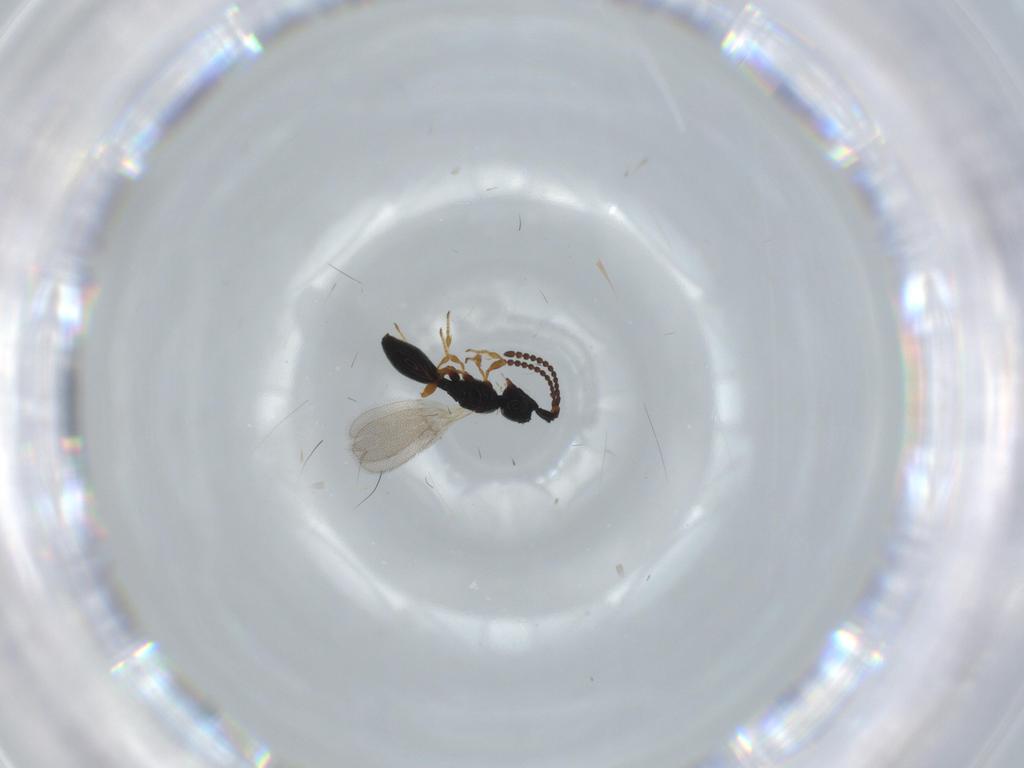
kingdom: Animalia
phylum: Arthropoda
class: Insecta
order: Hymenoptera
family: Diapriidae
